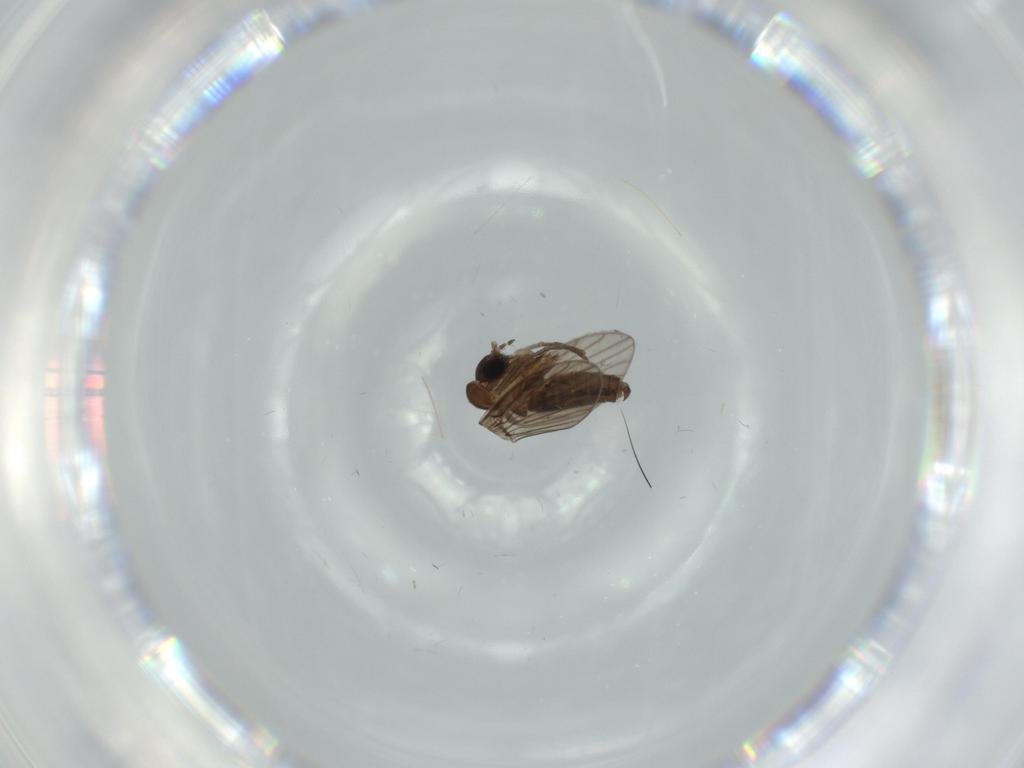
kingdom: Animalia
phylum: Arthropoda
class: Insecta
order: Diptera
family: Psychodidae
